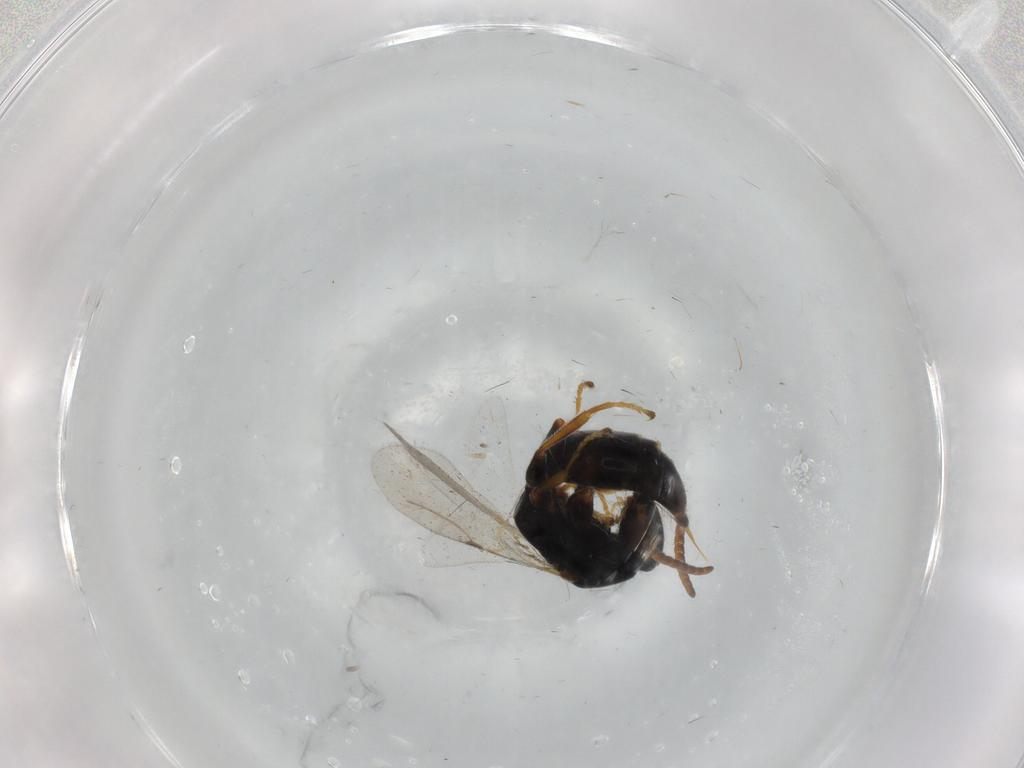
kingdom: Animalia
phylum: Arthropoda
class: Insecta
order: Hymenoptera
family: Bethylidae
